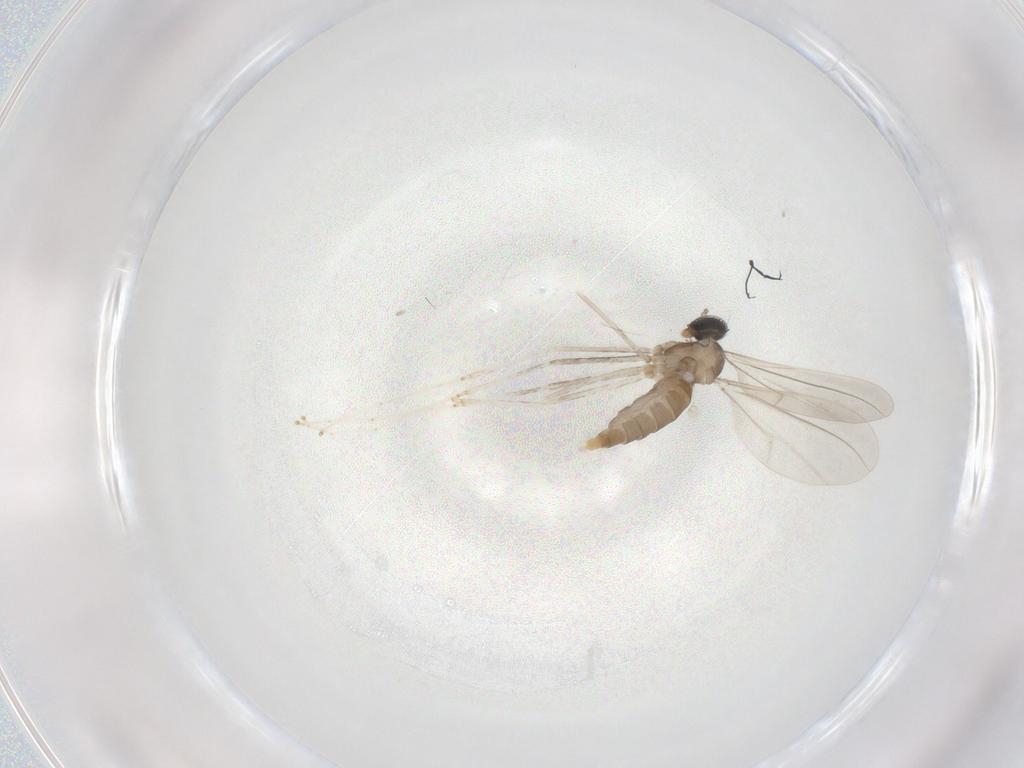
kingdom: Animalia
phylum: Arthropoda
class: Insecta
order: Diptera
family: Cecidomyiidae
